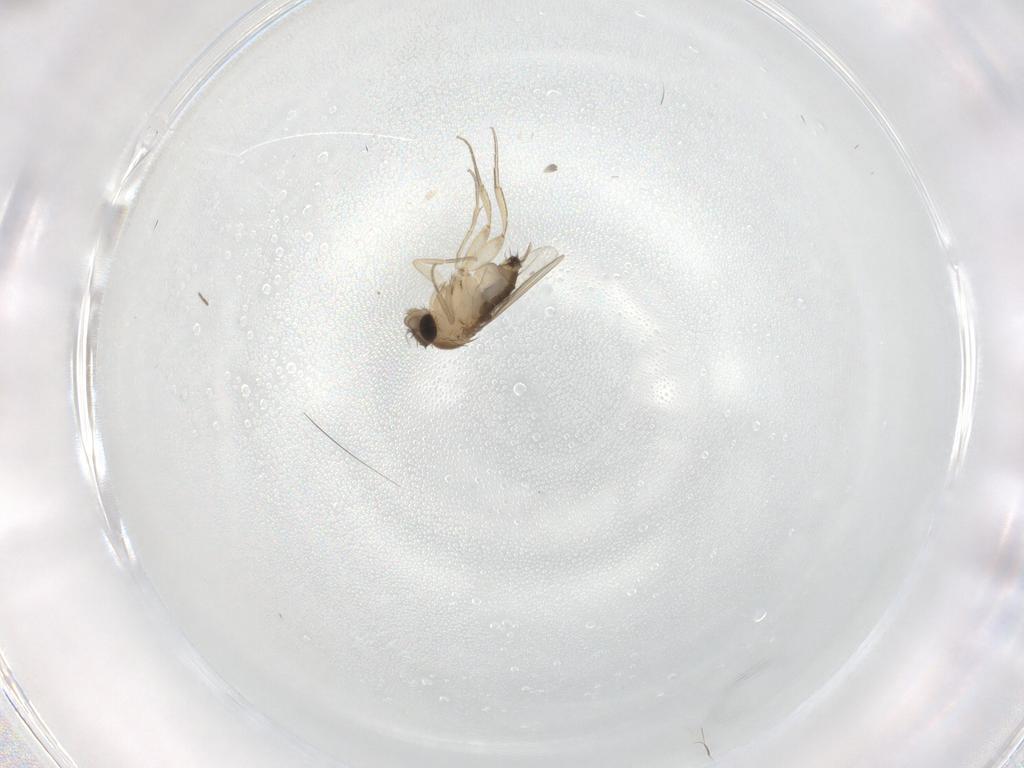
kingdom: Animalia
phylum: Arthropoda
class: Insecta
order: Diptera
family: Phoridae
